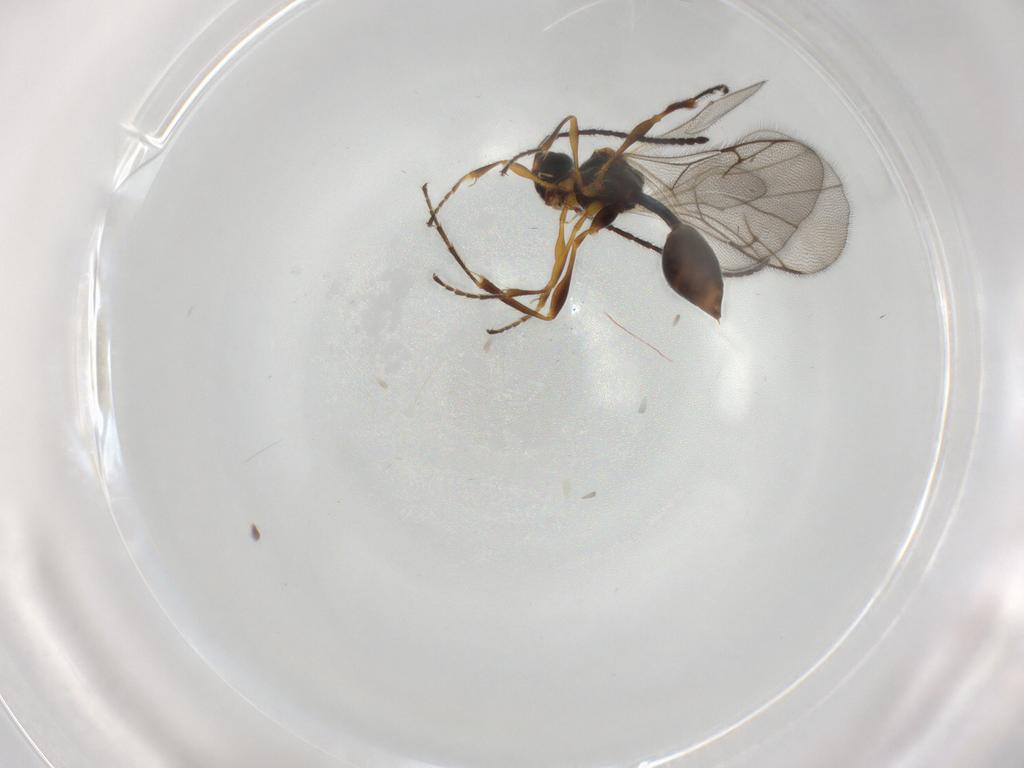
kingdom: Animalia
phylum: Arthropoda
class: Insecta
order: Hymenoptera
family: Diapriidae
